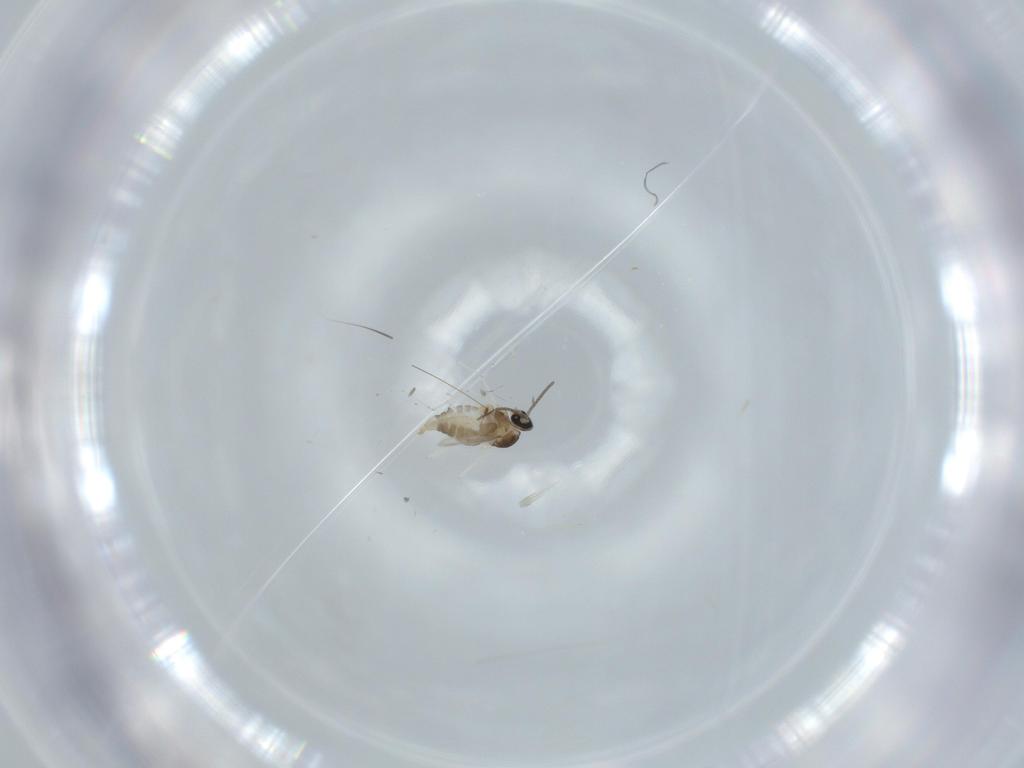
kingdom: Animalia
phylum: Arthropoda
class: Insecta
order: Diptera
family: Cecidomyiidae
